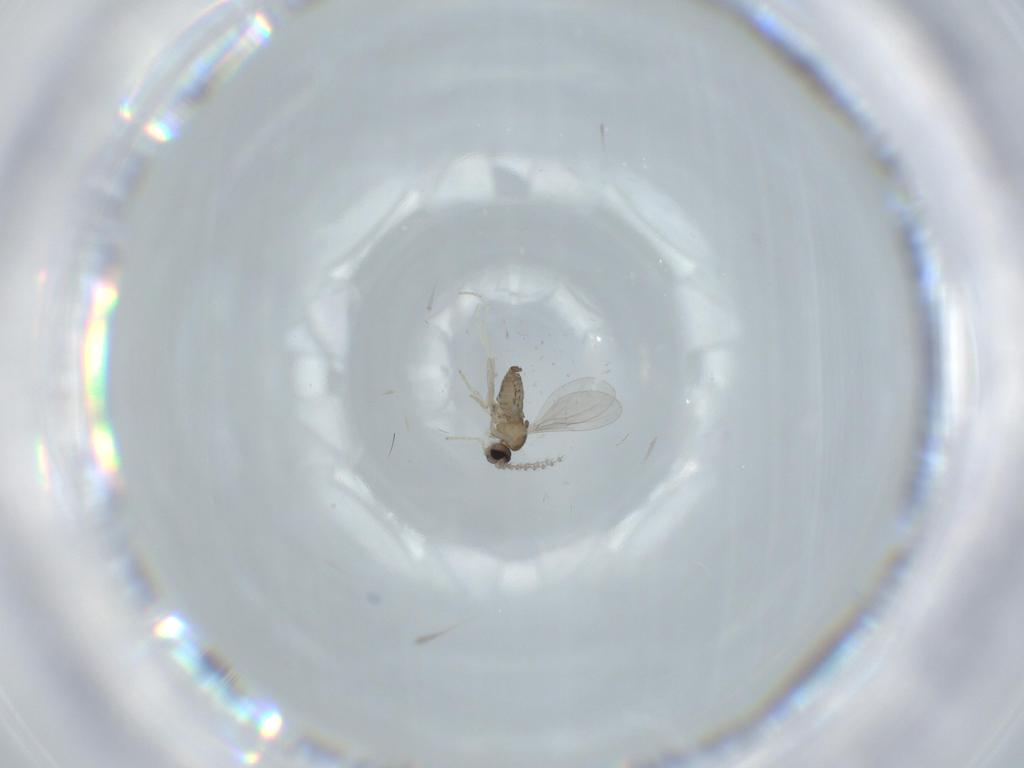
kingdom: Animalia
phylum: Arthropoda
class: Insecta
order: Diptera
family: Cecidomyiidae
